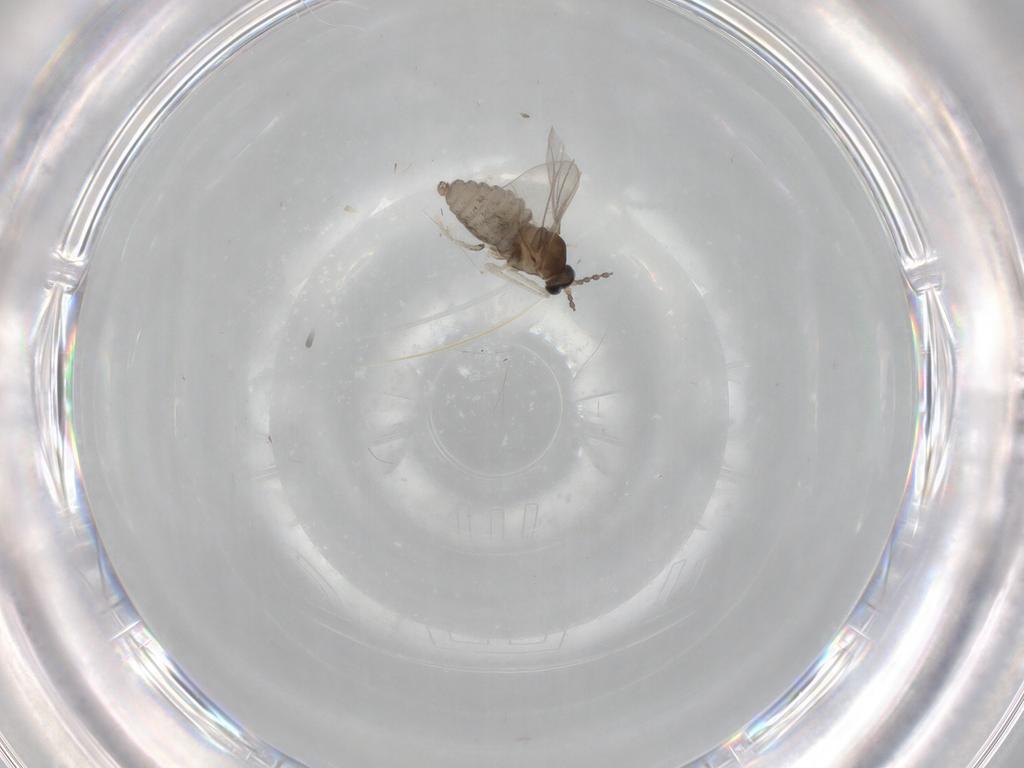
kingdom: Animalia
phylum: Arthropoda
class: Insecta
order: Diptera
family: Cecidomyiidae
